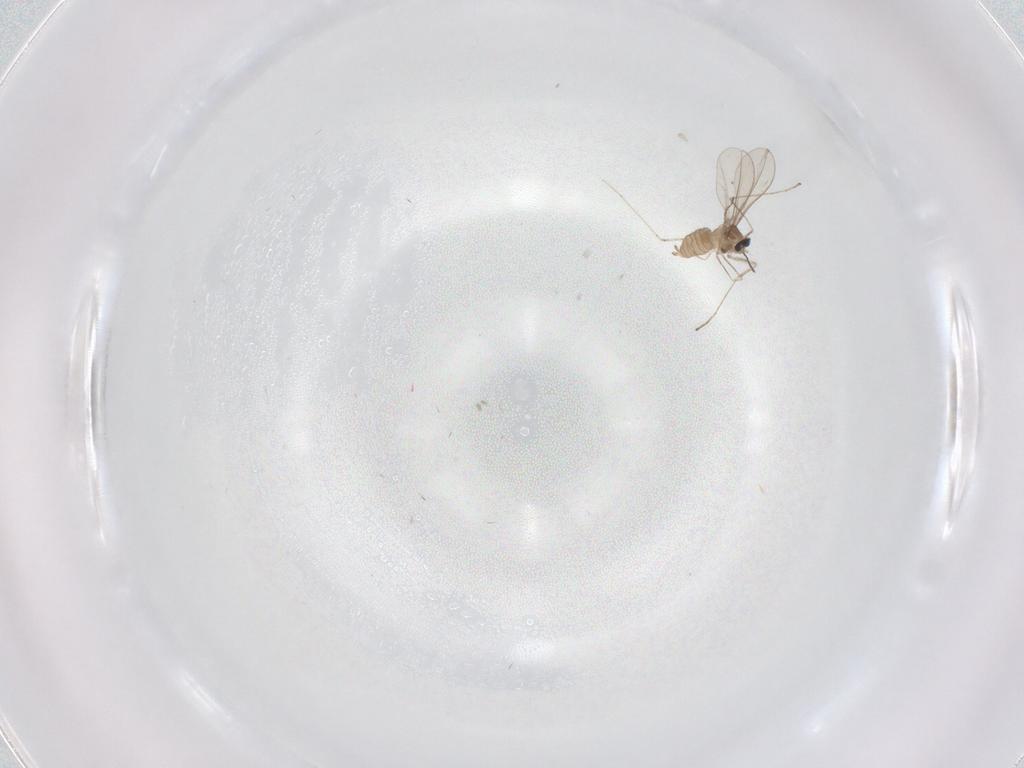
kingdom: Animalia
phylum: Arthropoda
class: Insecta
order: Diptera
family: Cecidomyiidae
